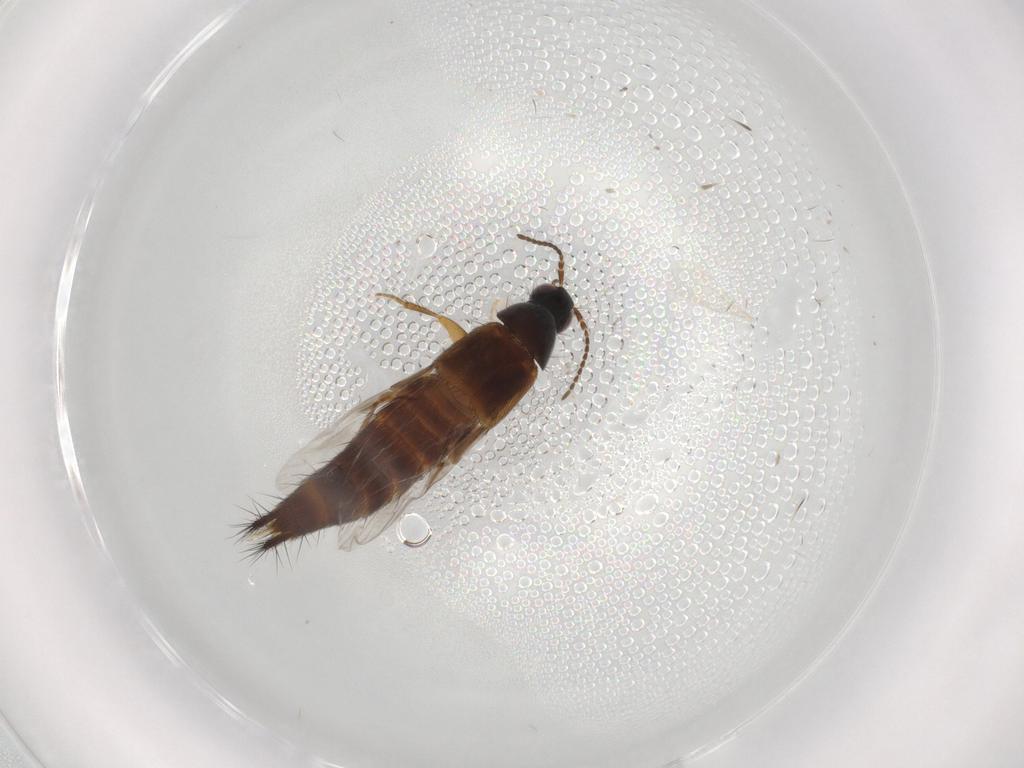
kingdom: Animalia
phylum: Arthropoda
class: Insecta
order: Coleoptera
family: Staphylinidae
